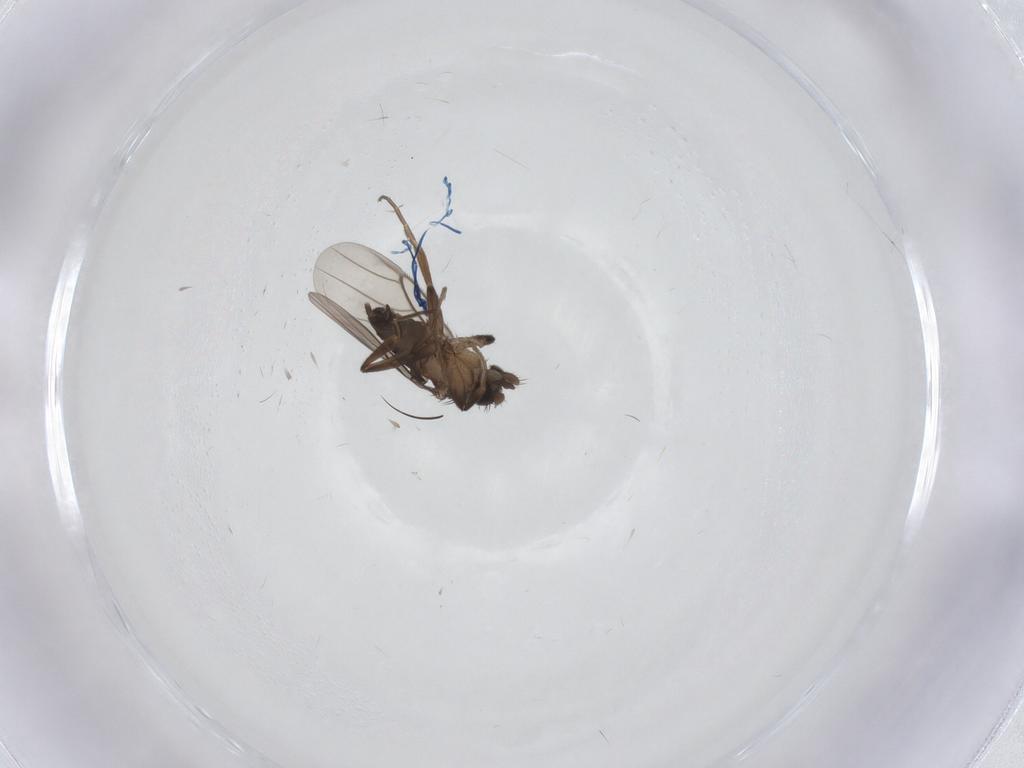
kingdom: Animalia
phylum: Arthropoda
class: Insecta
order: Diptera
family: Phoridae
